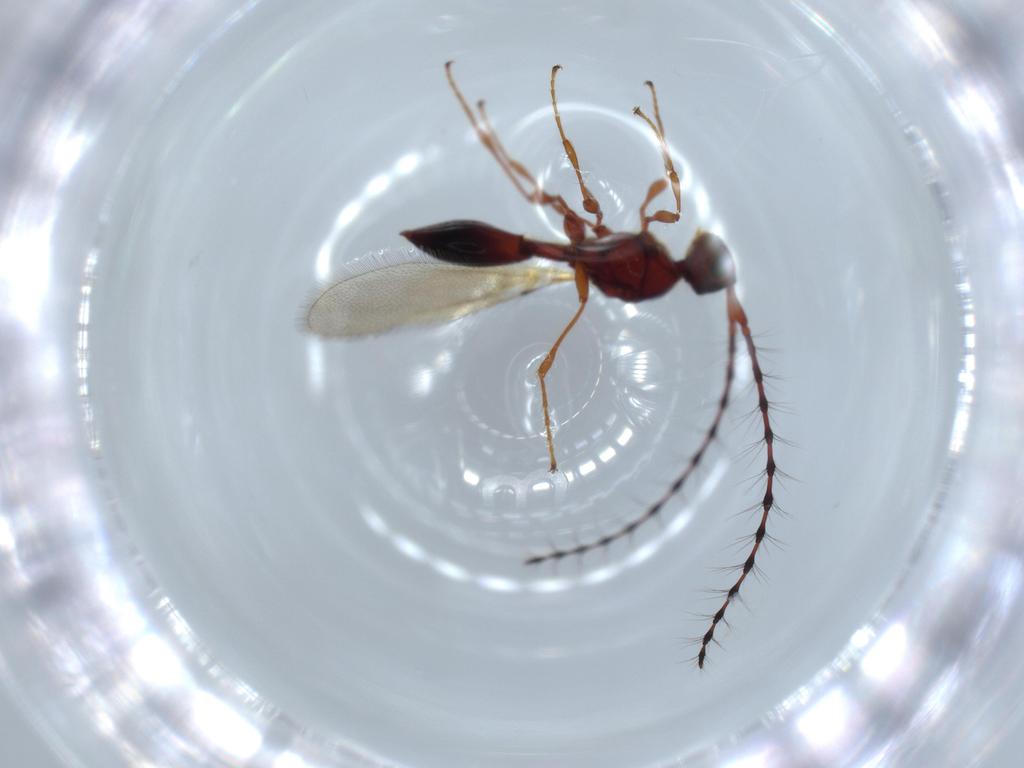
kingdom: Animalia
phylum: Arthropoda
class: Insecta
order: Hymenoptera
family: Diapriidae
